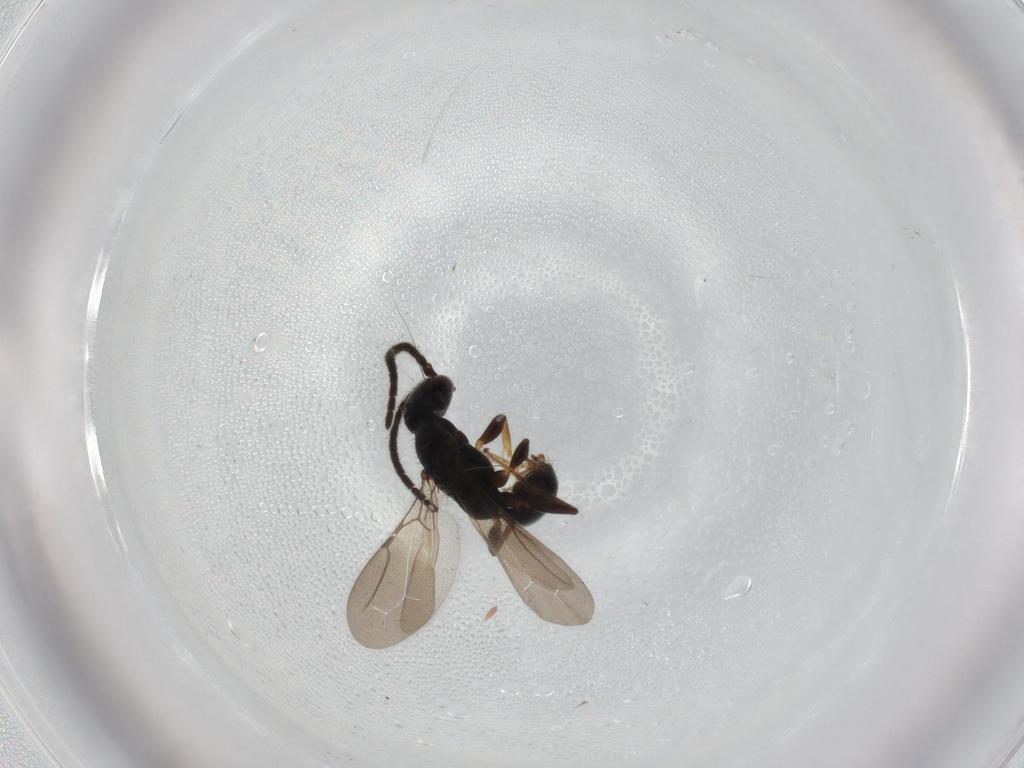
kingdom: Animalia
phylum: Arthropoda
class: Insecta
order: Hymenoptera
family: Bethylidae
